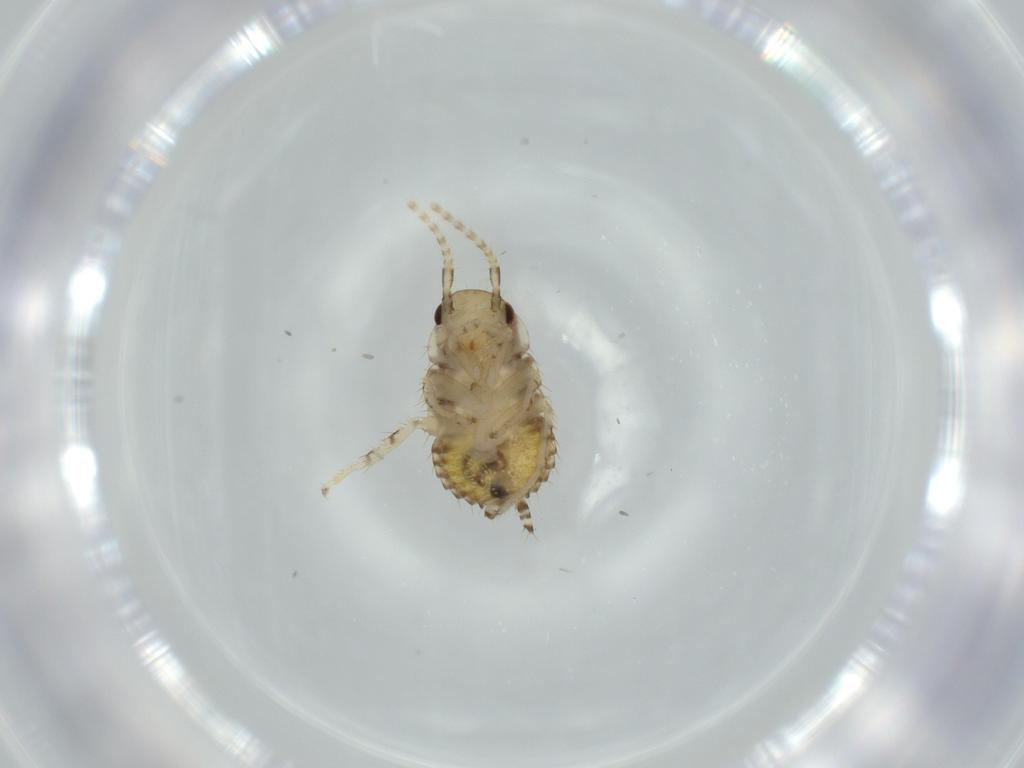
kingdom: Animalia
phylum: Arthropoda
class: Insecta
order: Blattodea
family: Ectobiidae
